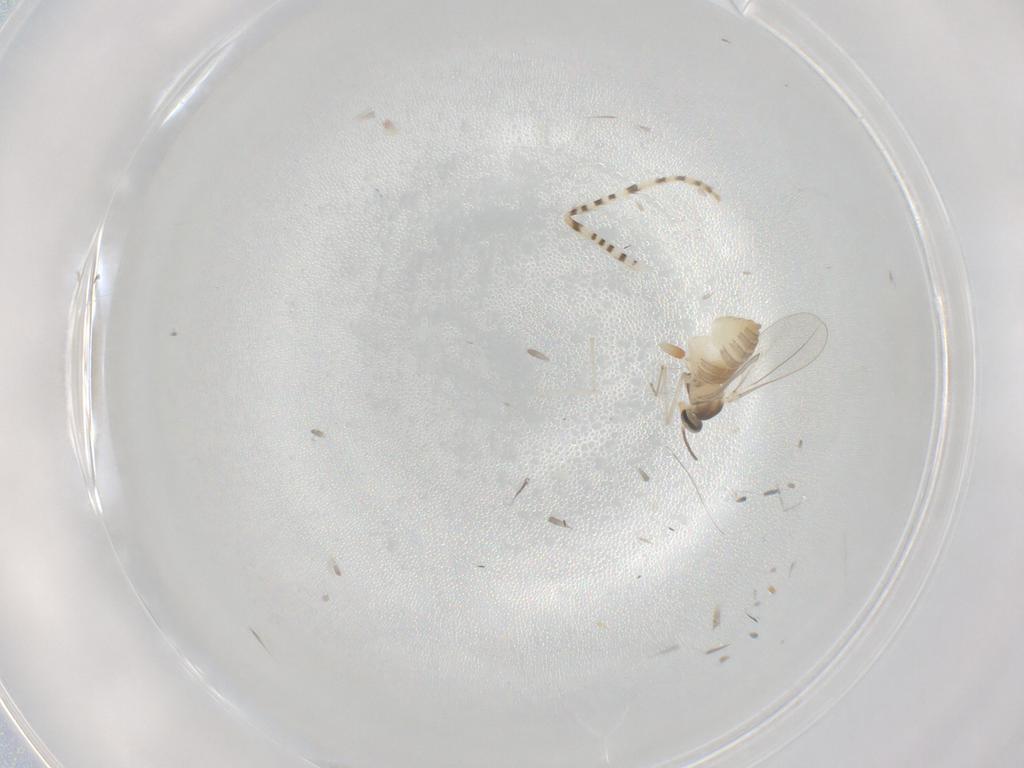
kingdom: Animalia
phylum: Arthropoda
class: Insecta
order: Diptera
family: Cecidomyiidae
